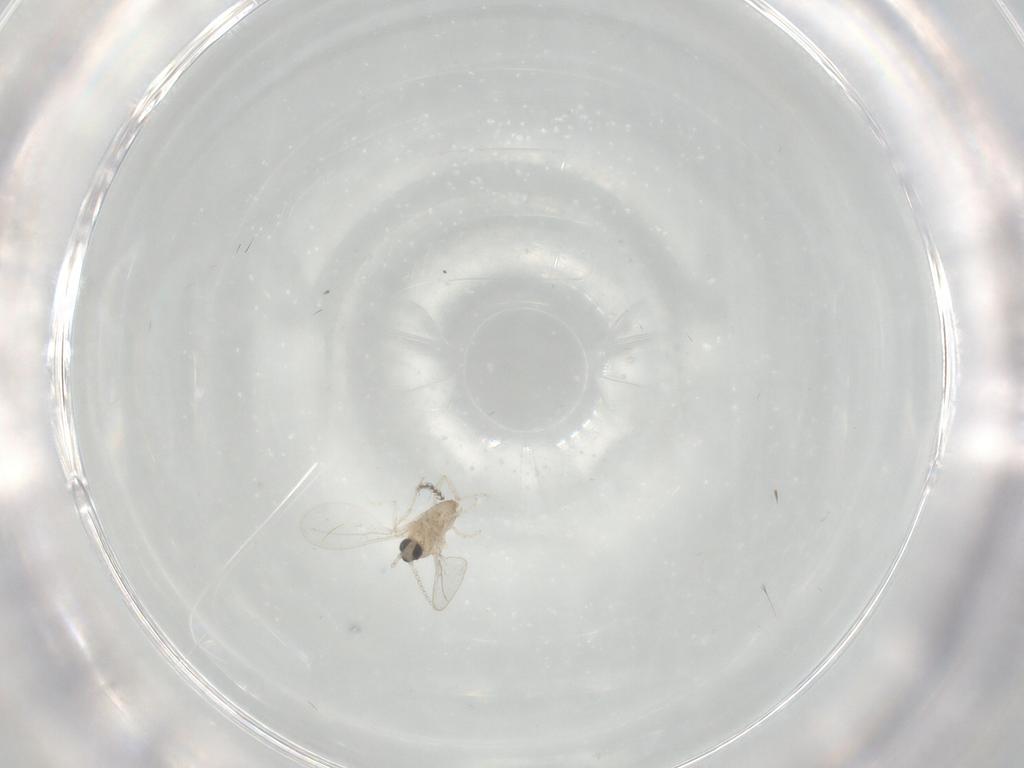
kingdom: Animalia
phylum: Arthropoda
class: Insecta
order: Diptera
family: Cecidomyiidae
